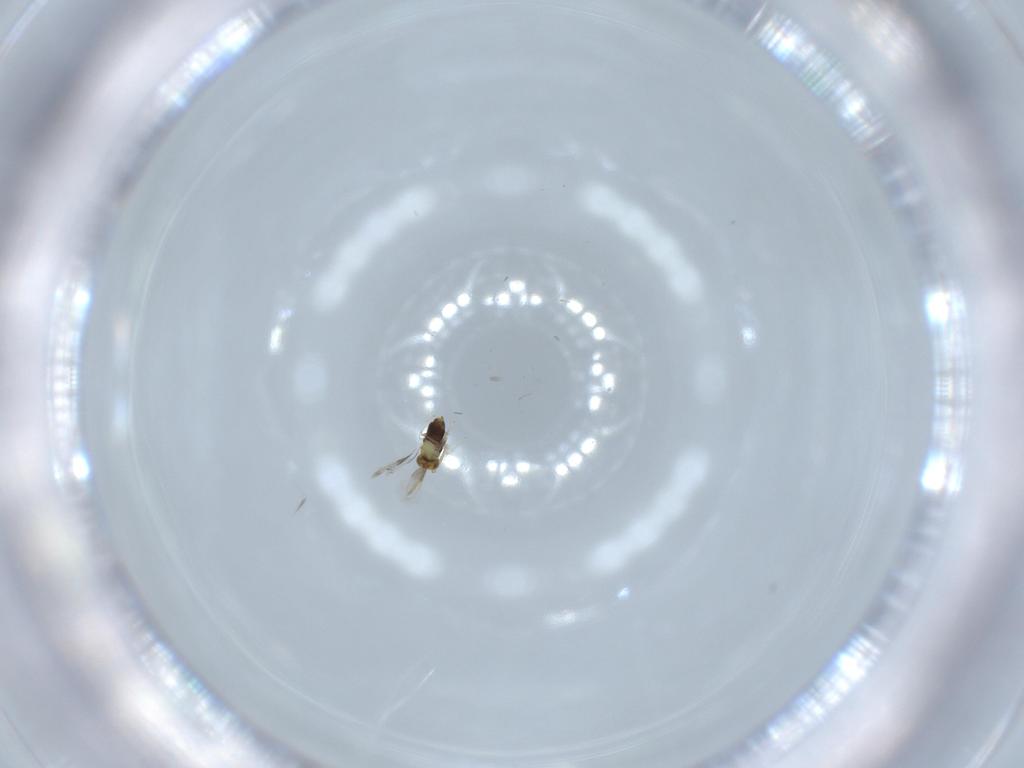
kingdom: Animalia
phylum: Arthropoda
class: Insecta
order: Hymenoptera
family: Aphelinidae
